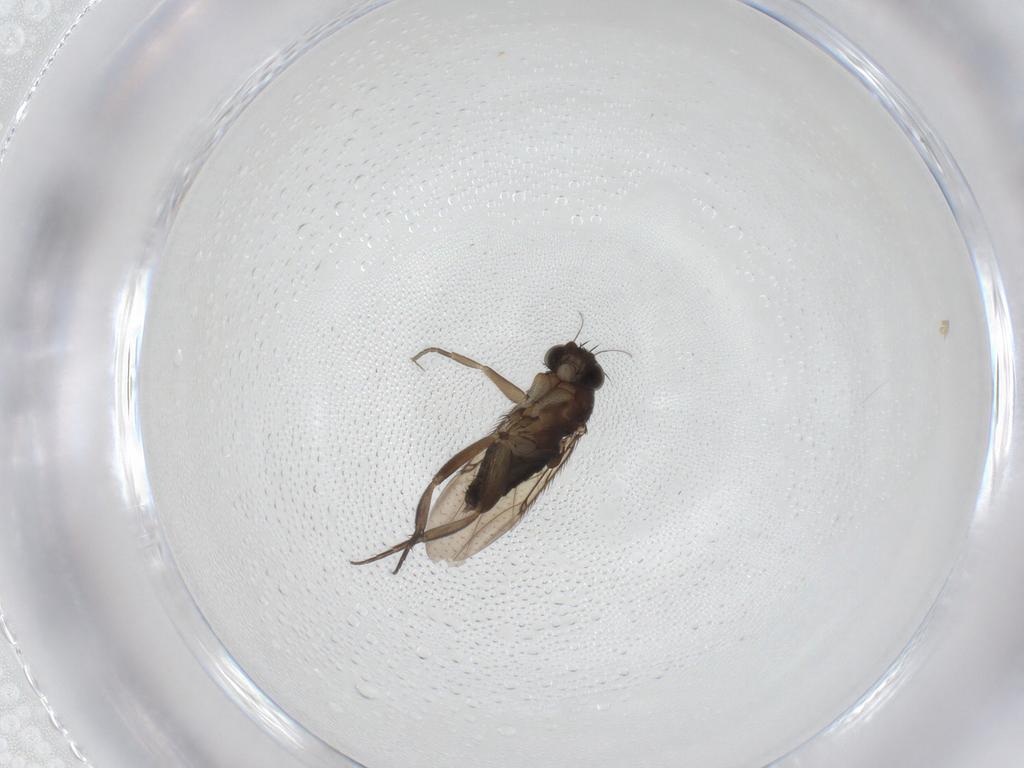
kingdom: Animalia
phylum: Arthropoda
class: Insecta
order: Diptera
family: Phoridae
